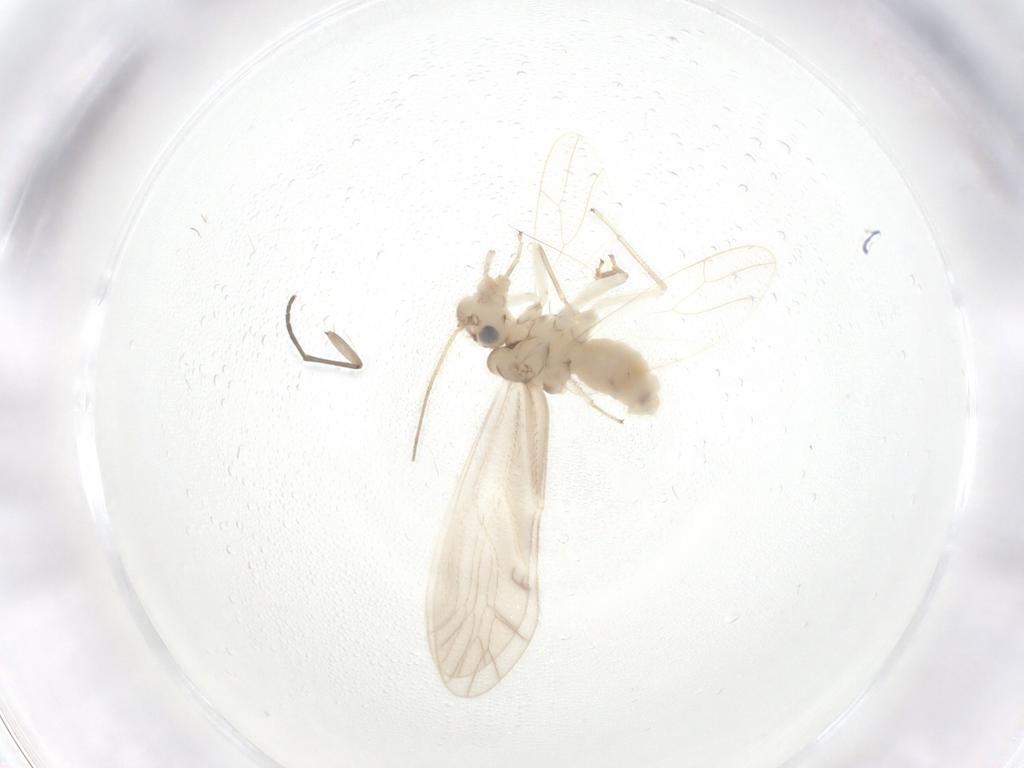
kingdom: Animalia
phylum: Arthropoda
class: Insecta
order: Psocodea
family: Caeciliusidae
